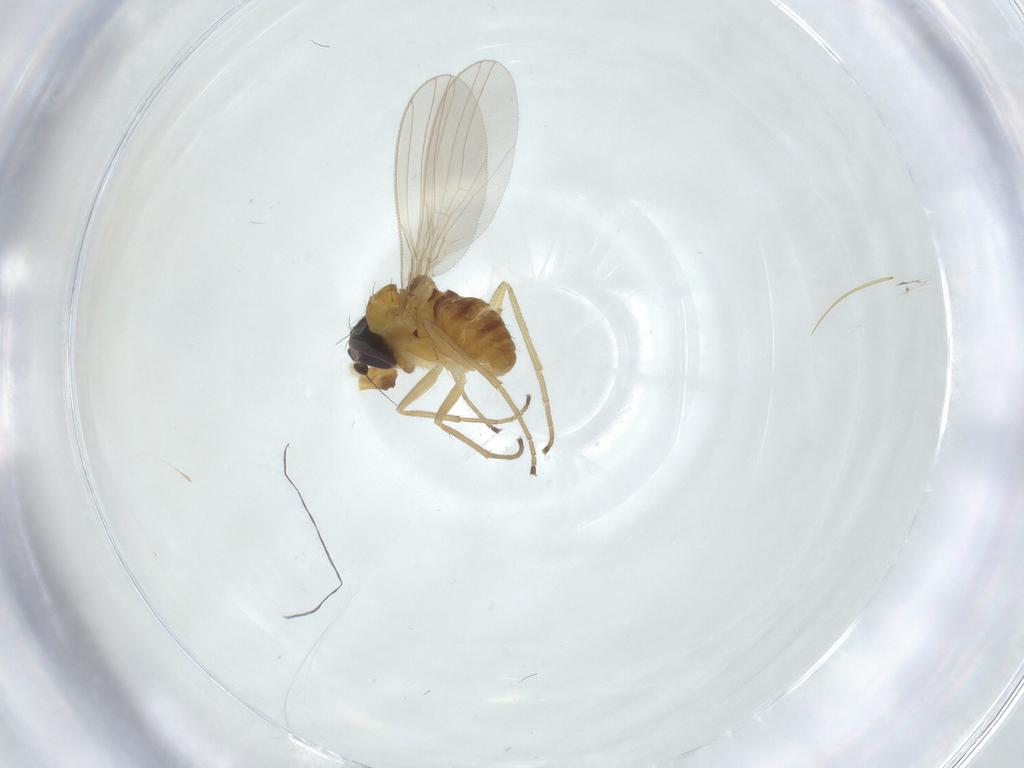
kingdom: Animalia
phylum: Arthropoda
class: Insecta
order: Diptera
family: Dolichopodidae
